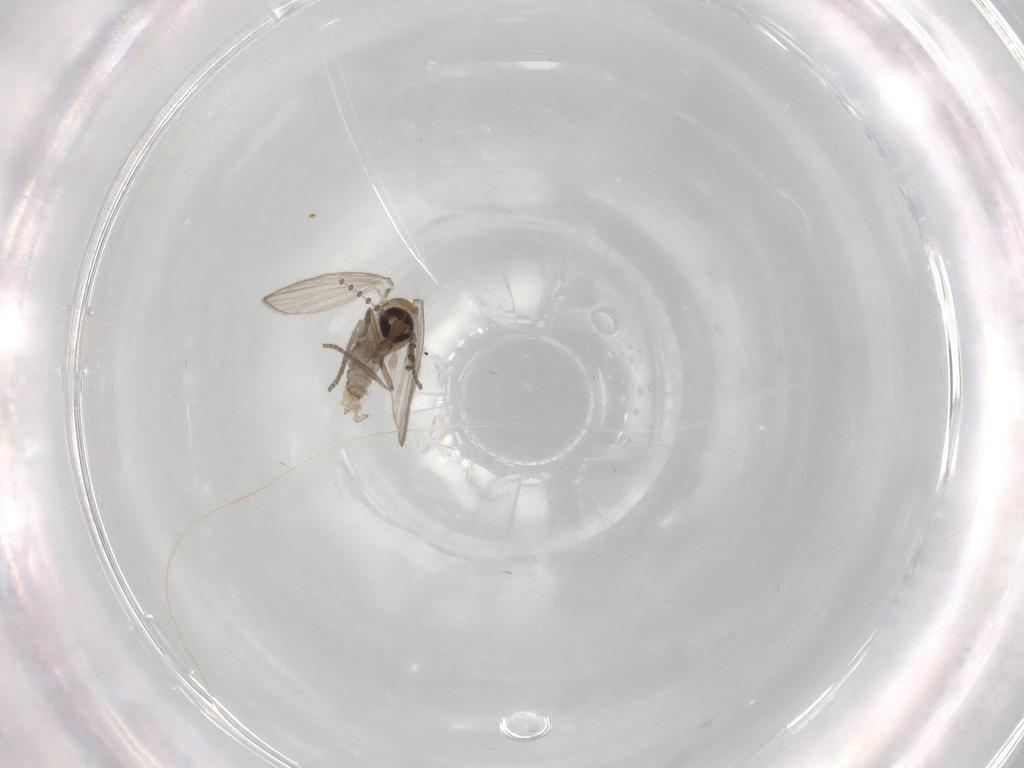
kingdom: Animalia
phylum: Arthropoda
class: Insecta
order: Diptera
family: Psychodidae
